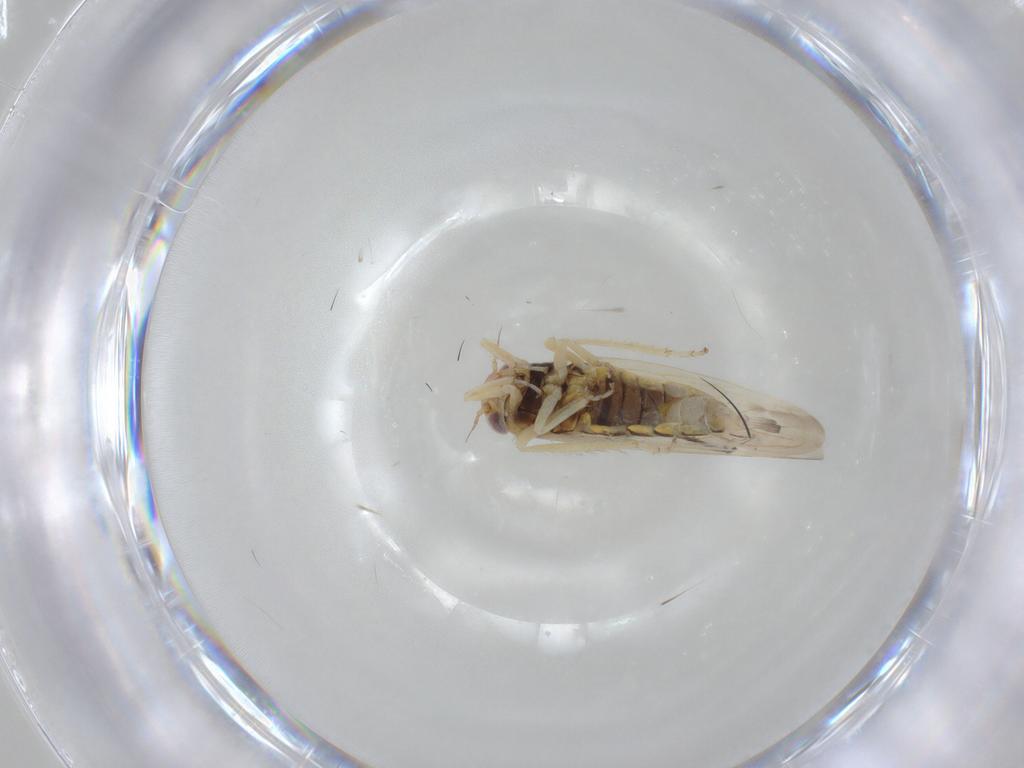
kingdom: Animalia
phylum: Arthropoda
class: Insecta
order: Hemiptera
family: Cicadellidae
